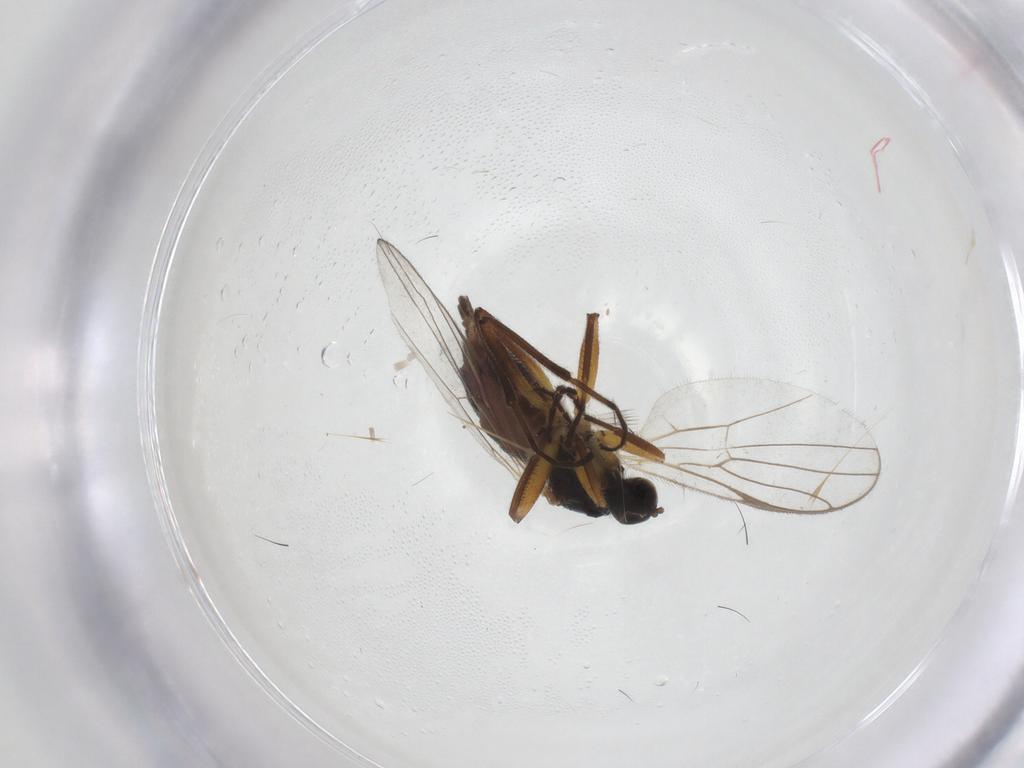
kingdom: Animalia
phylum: Arthropoda
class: Insecta
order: Diptera
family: Hybotidae
